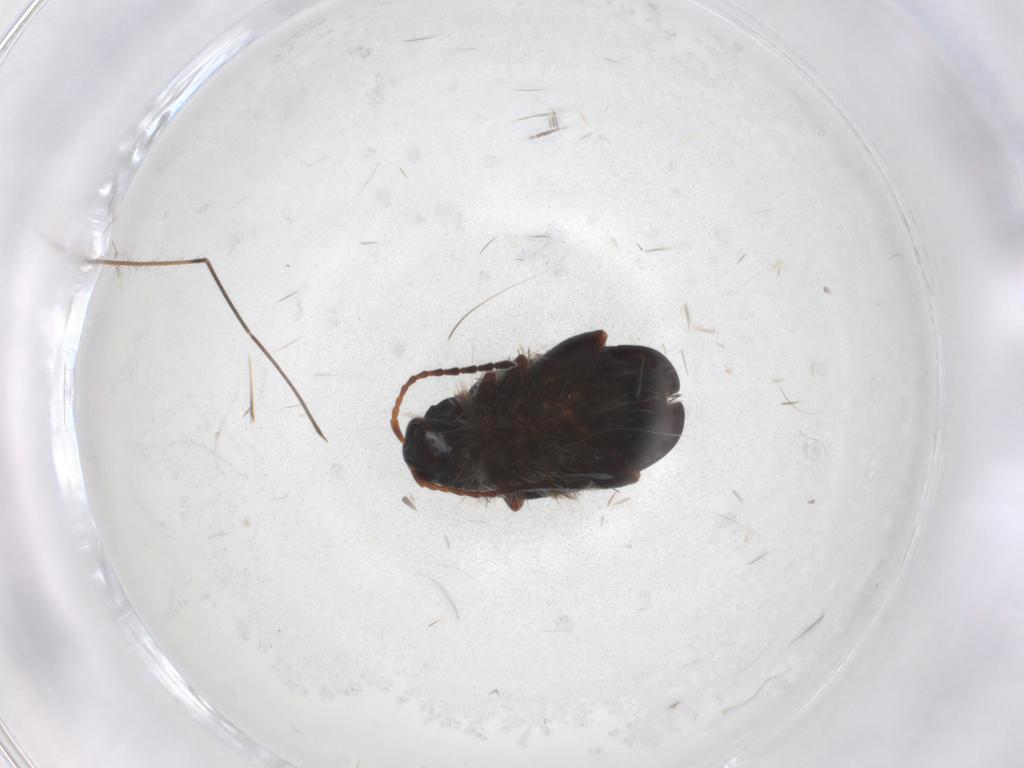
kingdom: Animalia
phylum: Arthropoda
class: Insecta
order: Coleoptera
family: Chrysomelidae
